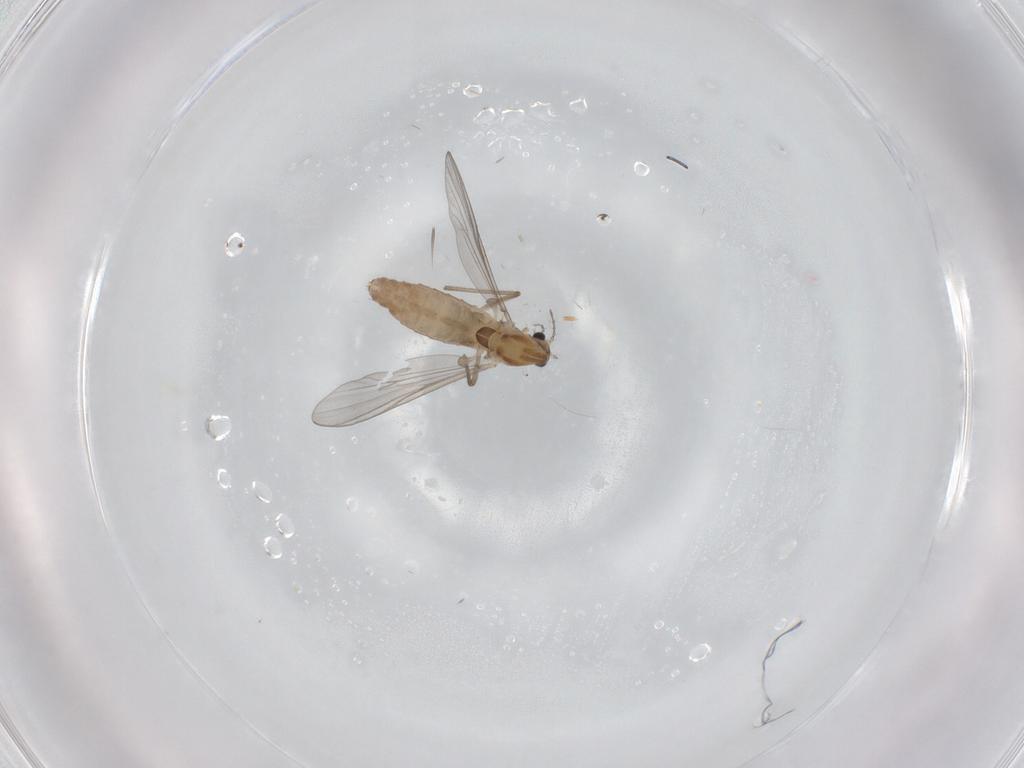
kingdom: Animalia
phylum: Arthropoda
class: Insecta
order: Diptera
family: Chironomidae
